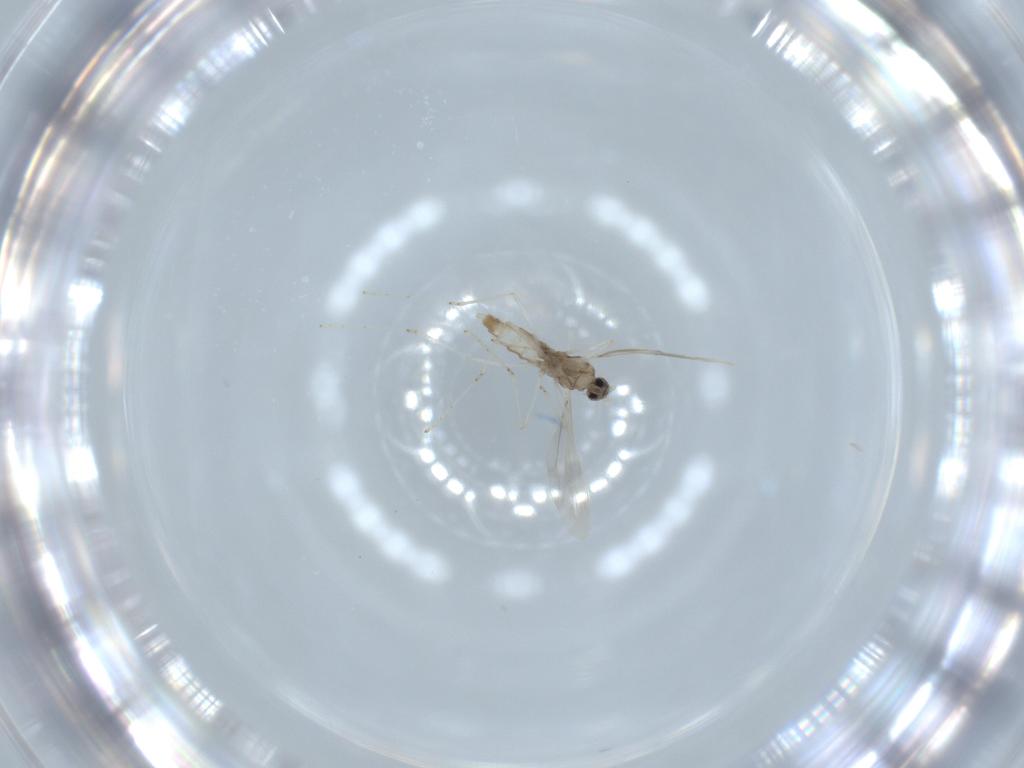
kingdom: Animalia
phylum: Arthropoda
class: Insecta
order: Diptera
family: Cecidomyiidae
